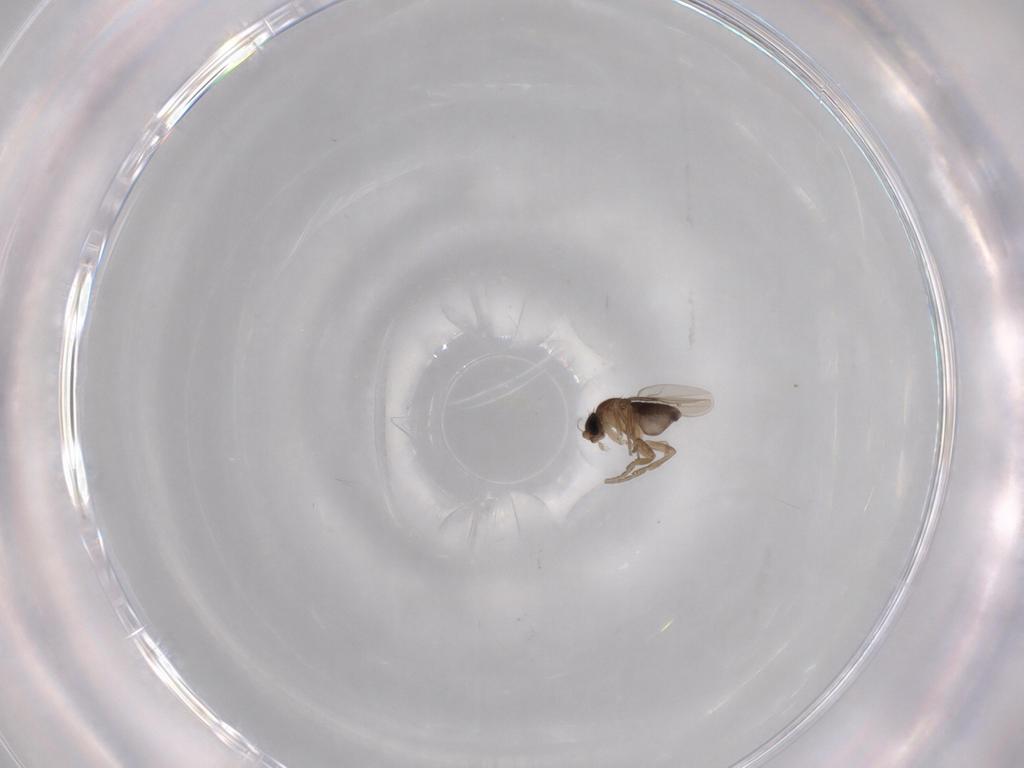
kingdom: Animalia
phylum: Arthropoda
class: Insecta
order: Diptera
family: Phoridae
